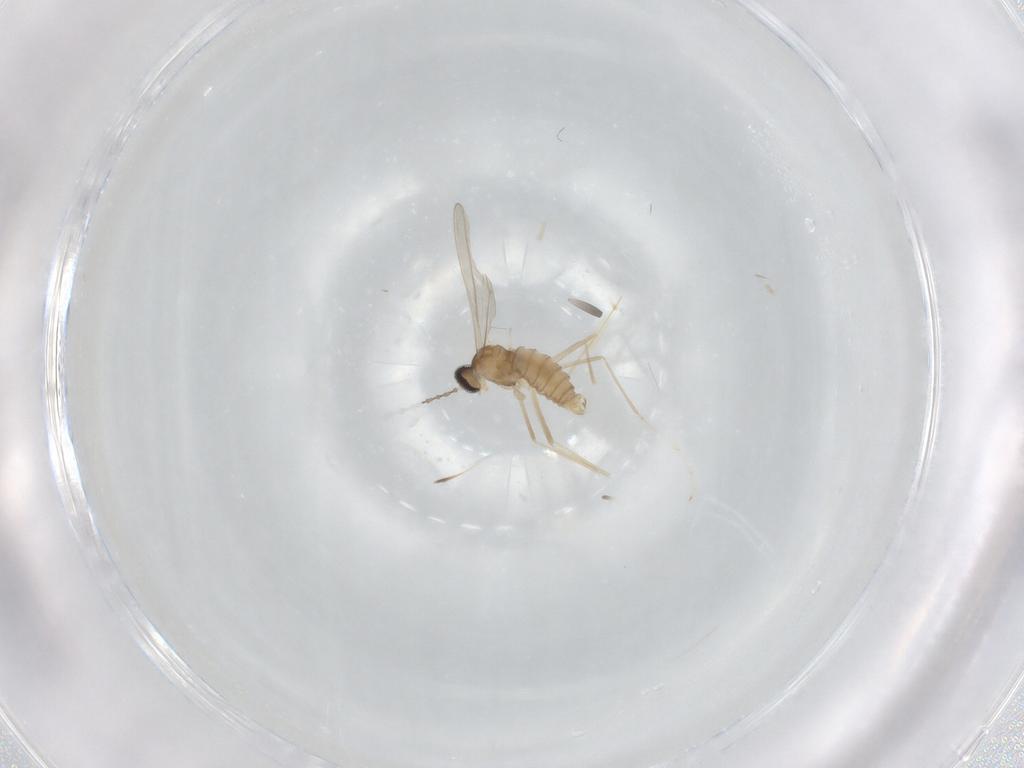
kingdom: Animalia
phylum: Arthropoda
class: Insecta
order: Diptera
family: Cecidomyiidae
